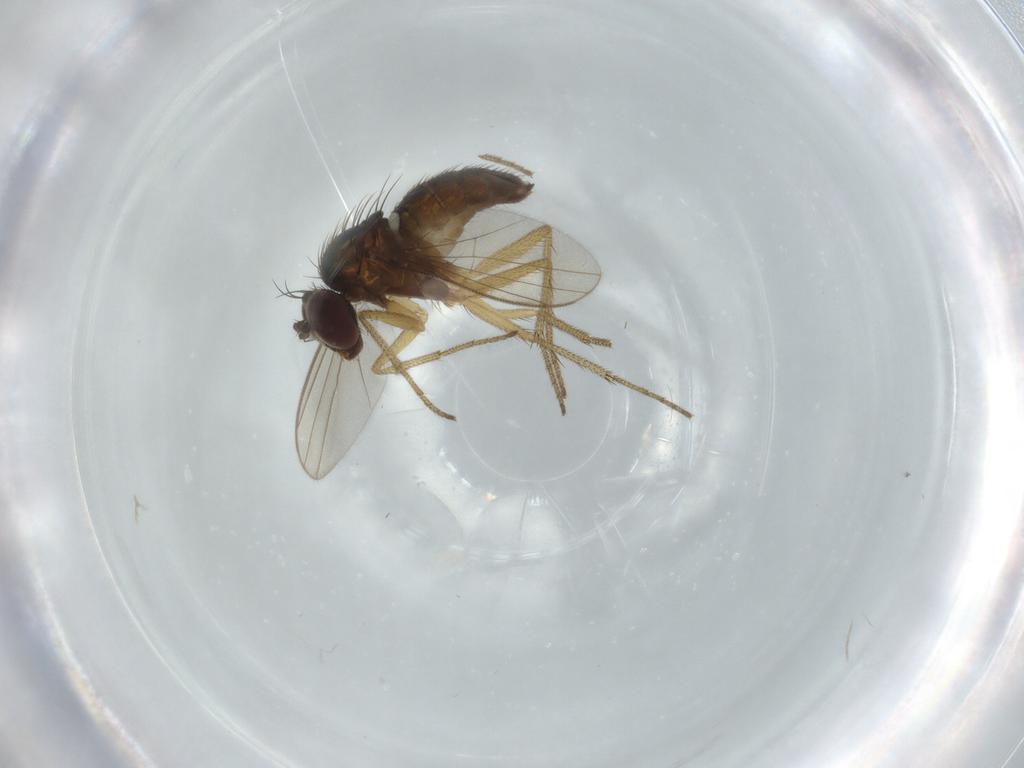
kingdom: Animalia
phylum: Arthropoda
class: Insecta
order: Diptera
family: Dolichopodidae
